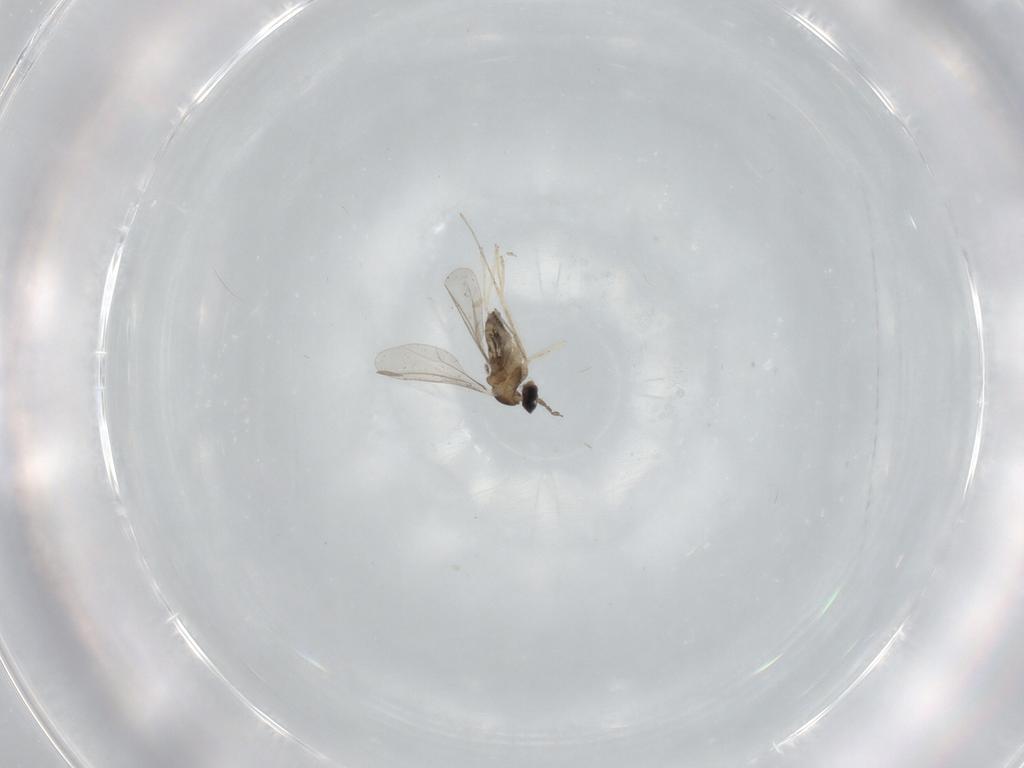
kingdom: Animalia
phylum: Arthropoda
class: Insecta
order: Diptera
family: Cecidomyiidae
